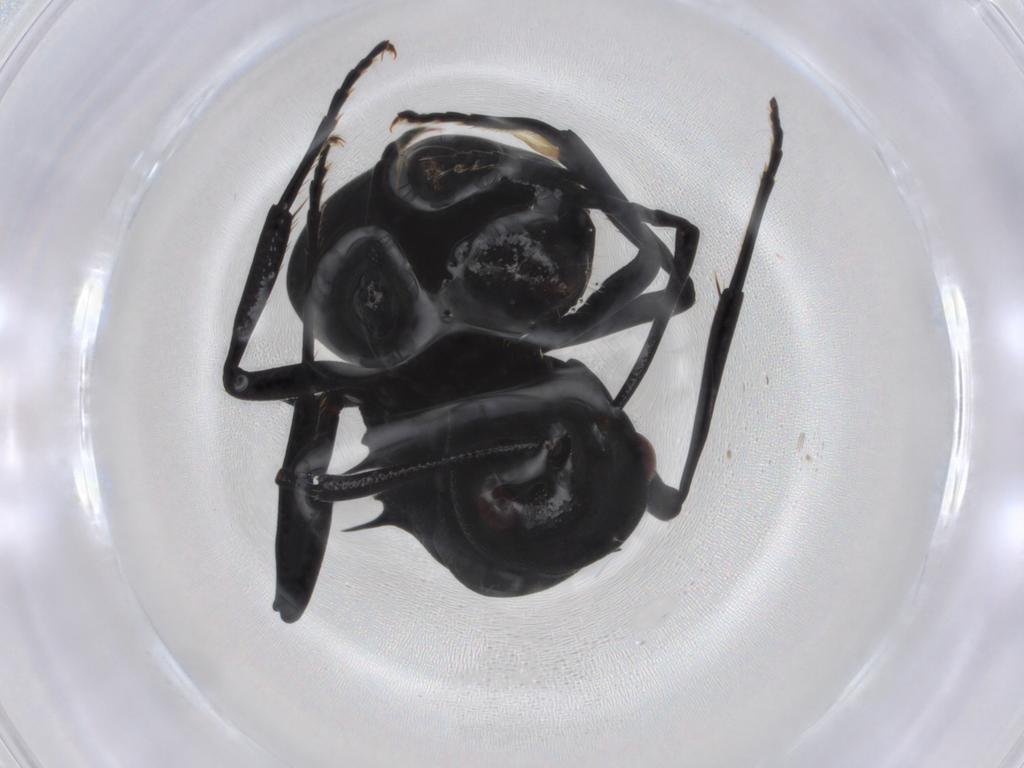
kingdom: Animalia
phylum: Arthropoda
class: Insecta
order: Hymenoptera
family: Formicidae
